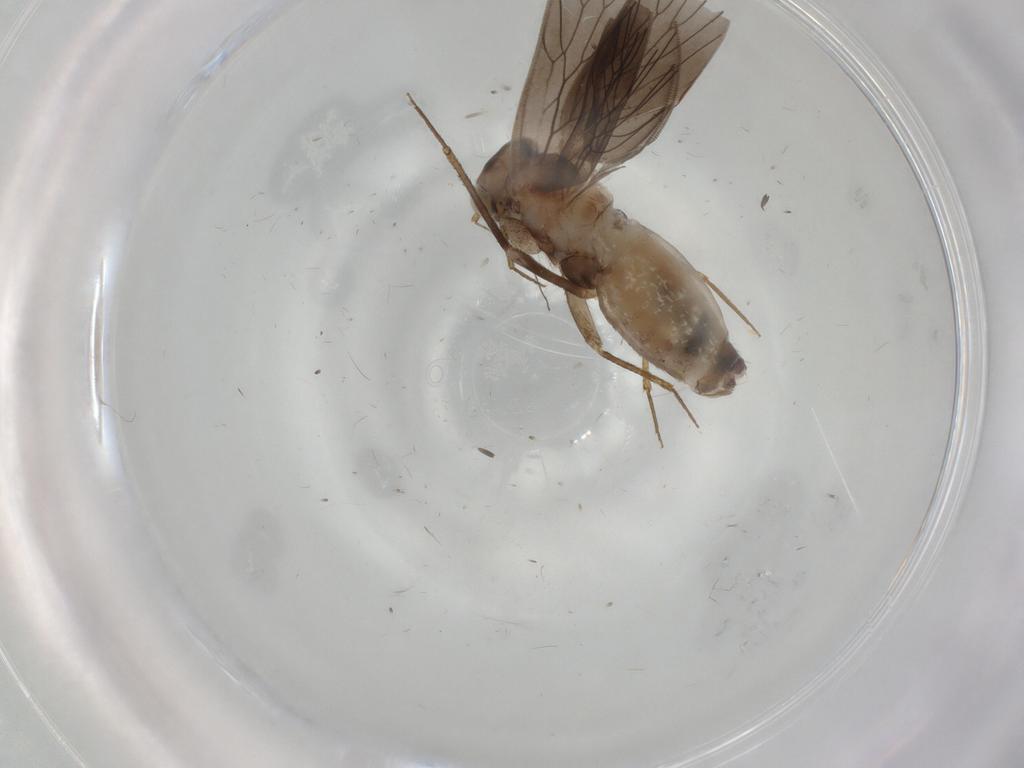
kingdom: Animalia
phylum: Arthropoda
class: Insecta
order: Psocodea
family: Lepidopsocidae
